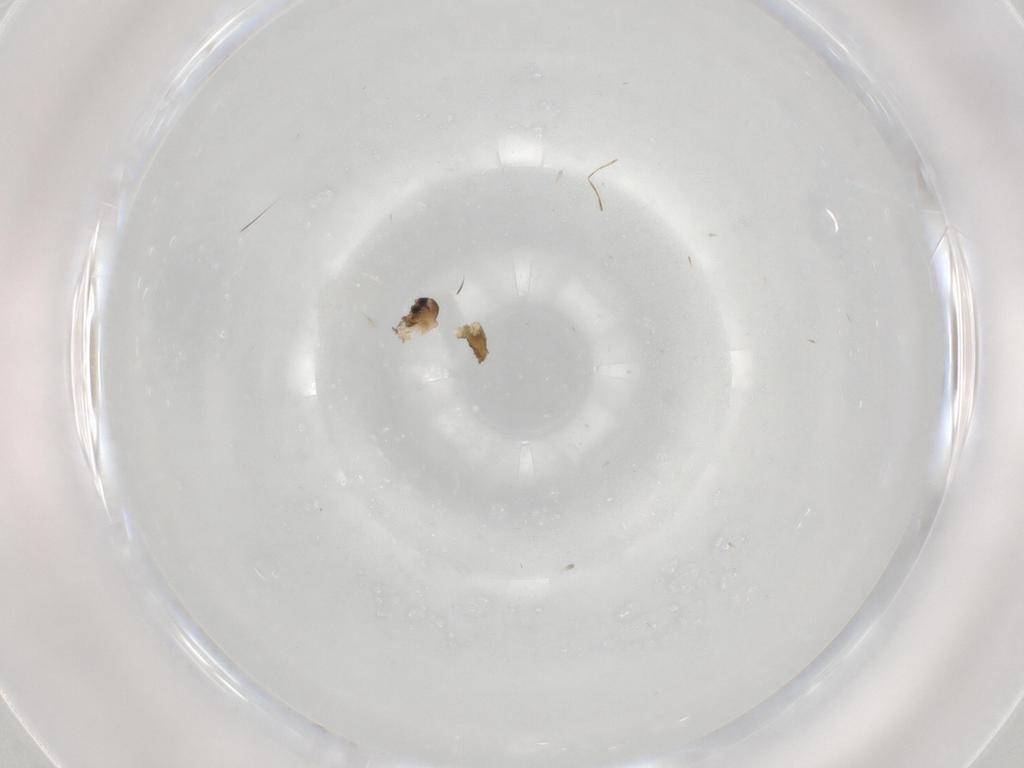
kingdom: Animalia
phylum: Arthropoda
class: Insecta
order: Diptera
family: Cecidomyiidae
